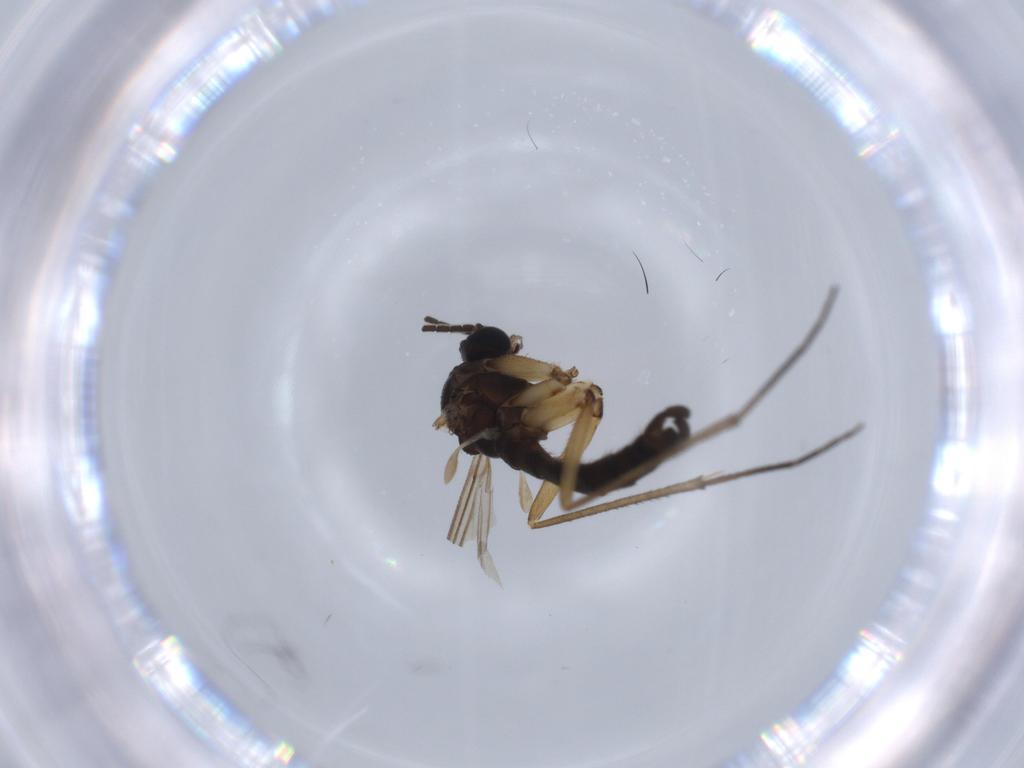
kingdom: Animalia
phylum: Arthropoda
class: Insecta
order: Diptera
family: Sciaridae
